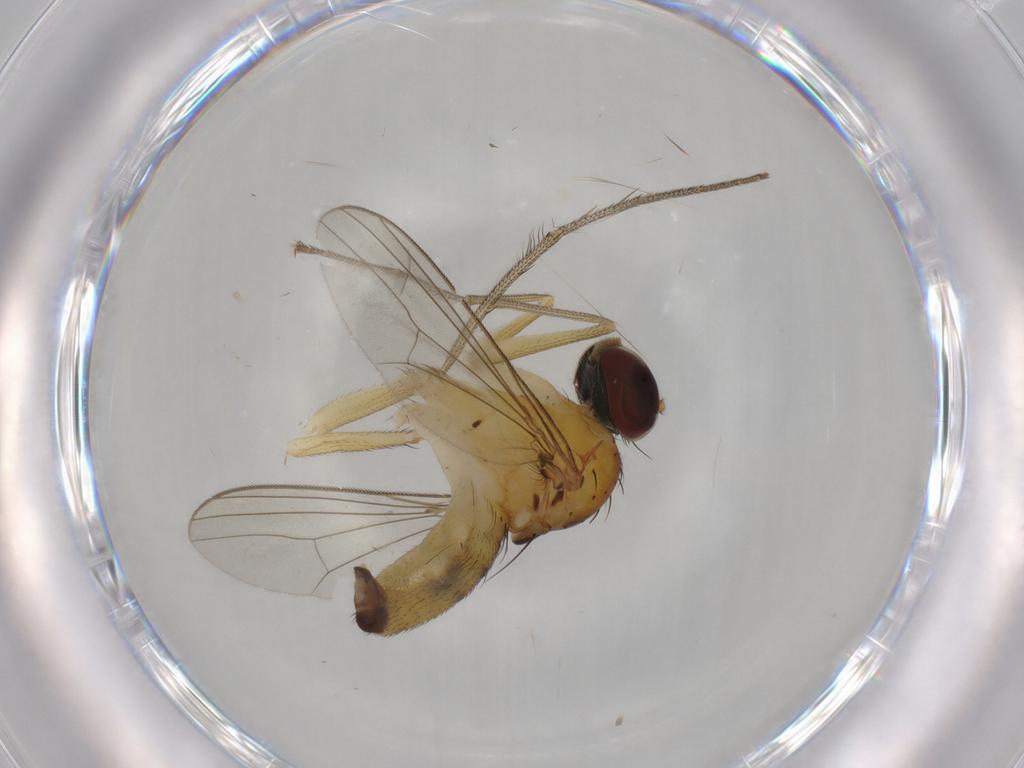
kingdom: Animalia
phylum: Arthropoda
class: Insecta
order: Diptera
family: Dolichopodidae
